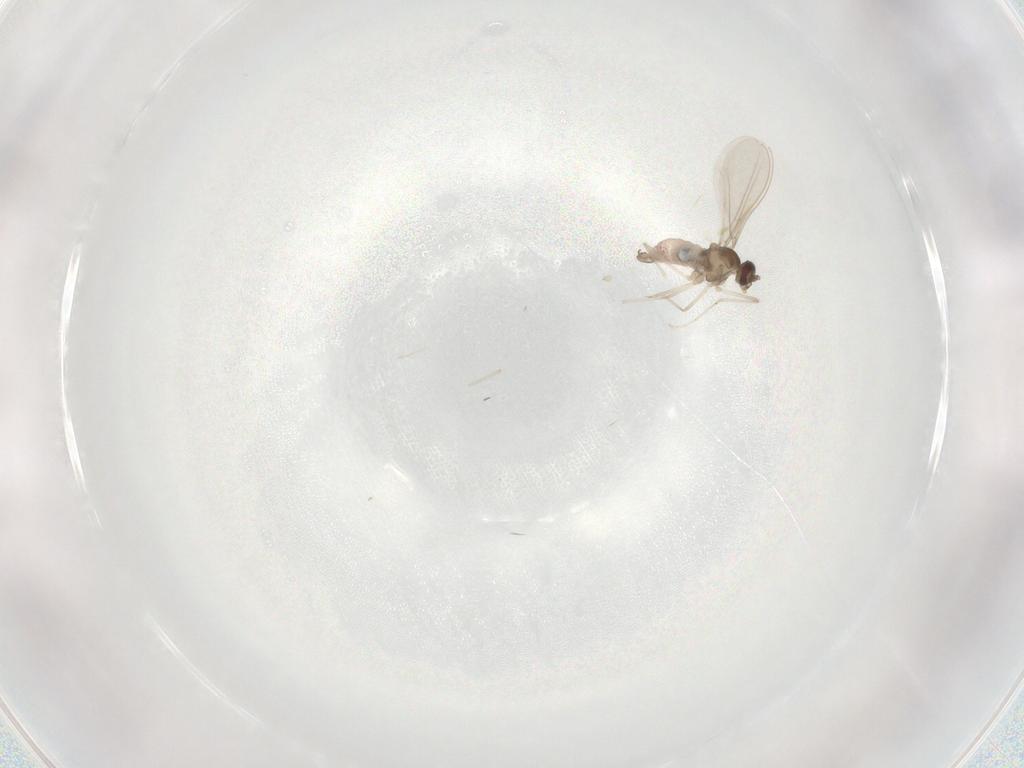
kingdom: Animalia
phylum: Arthropoda
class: Insecta
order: Diptera
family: Cecidomyiidae
